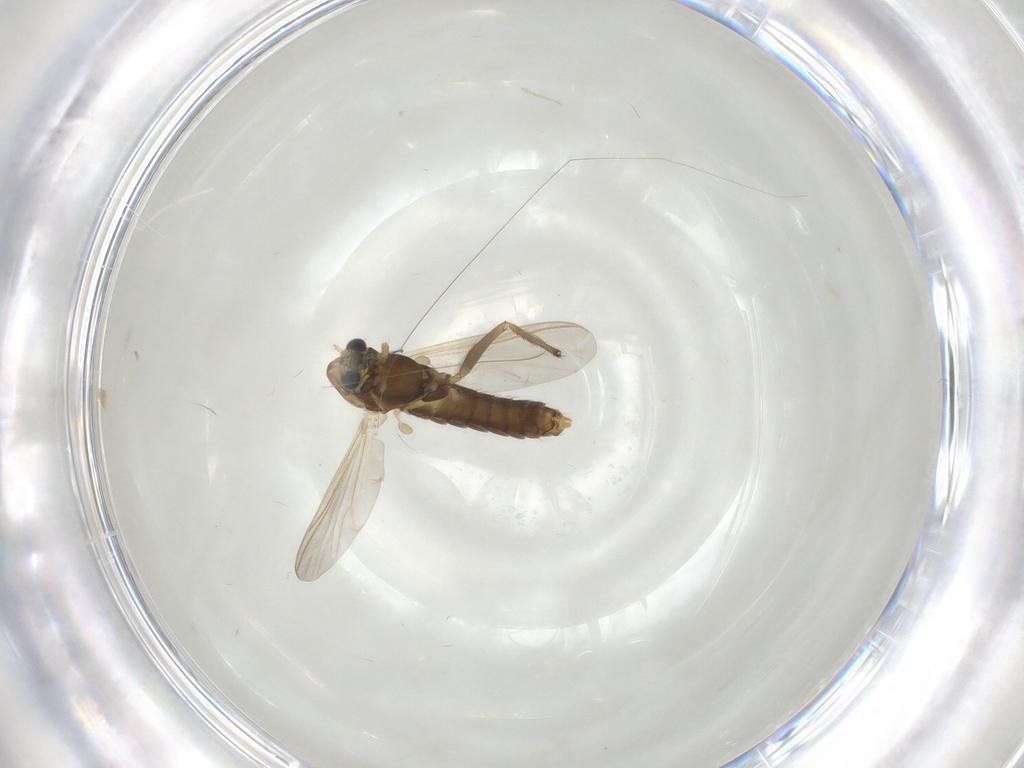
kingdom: Animalia
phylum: Arthropoda
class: Insecta
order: Diptera
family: Chironomidae
